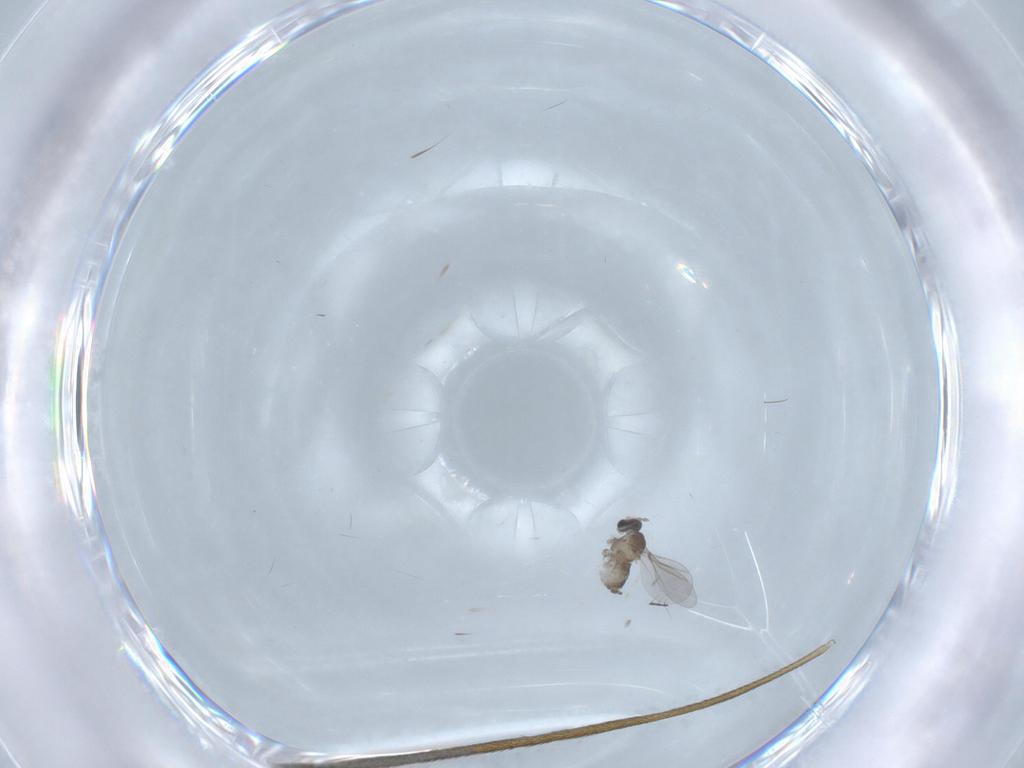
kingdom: Animalia
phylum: Arthropoda
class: Insecta
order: Diptera
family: Limoniidae
